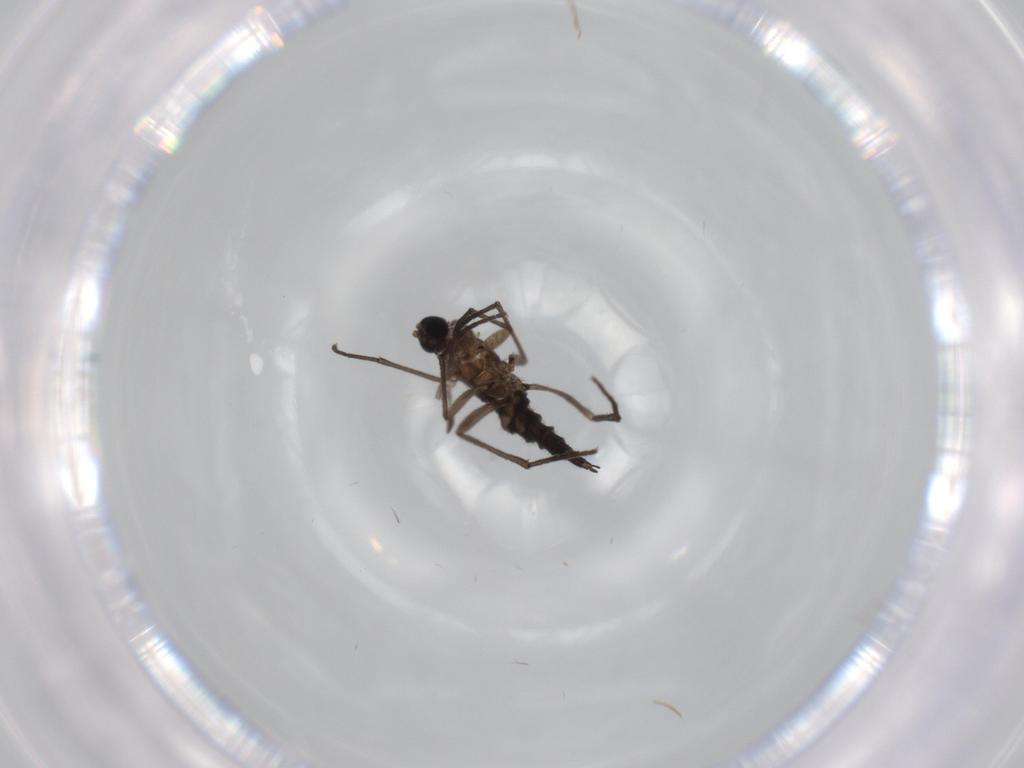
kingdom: Animalia
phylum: Arthropoda
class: Insecta
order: Diptera
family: Sciaridae
